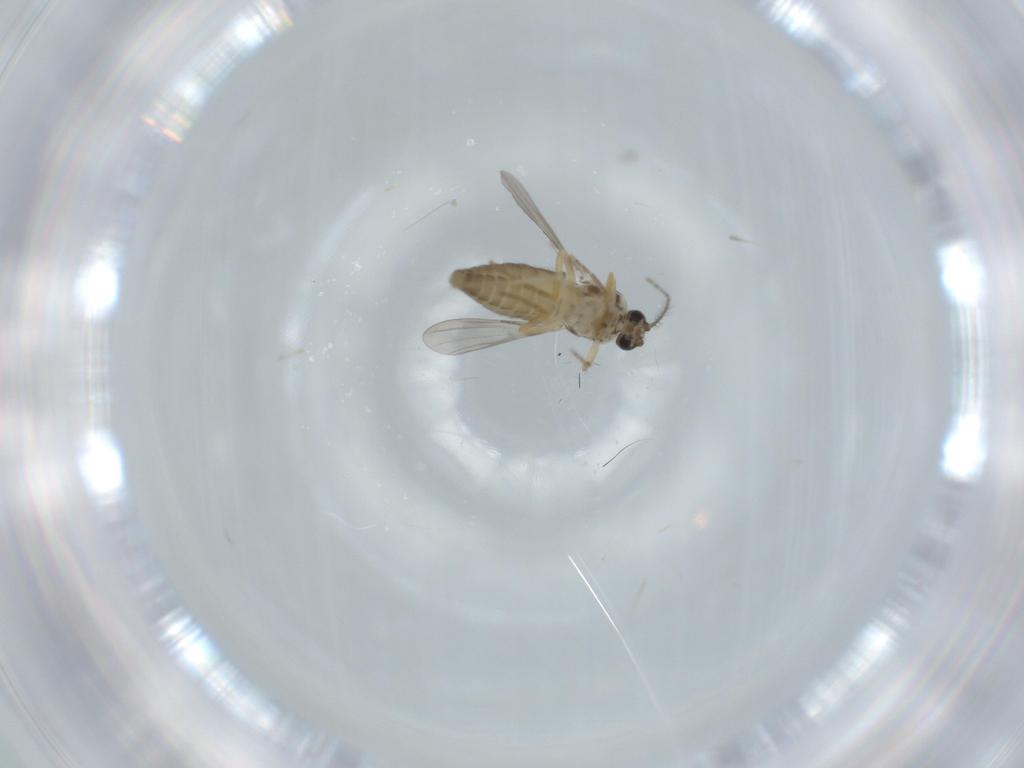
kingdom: Animalia
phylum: Arthropoda
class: Insecta
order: Diptera
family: Ceratopogonidae
